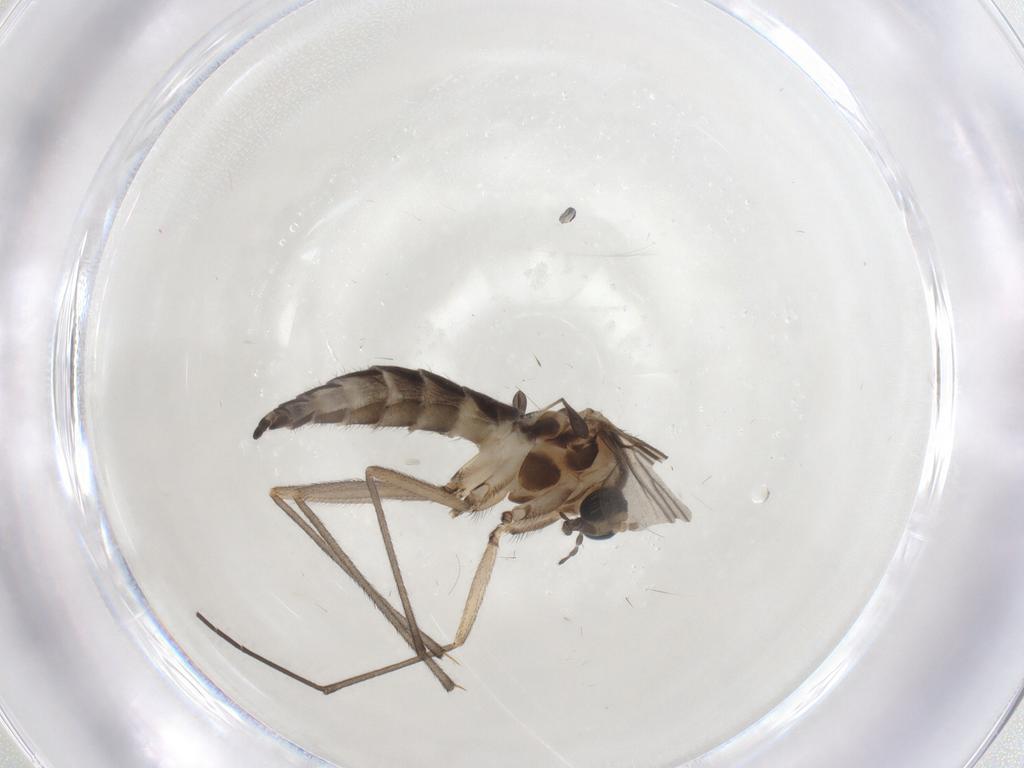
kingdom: Animalia
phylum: Arthropoda
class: Insecta
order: Diptera
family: Sciaridae
